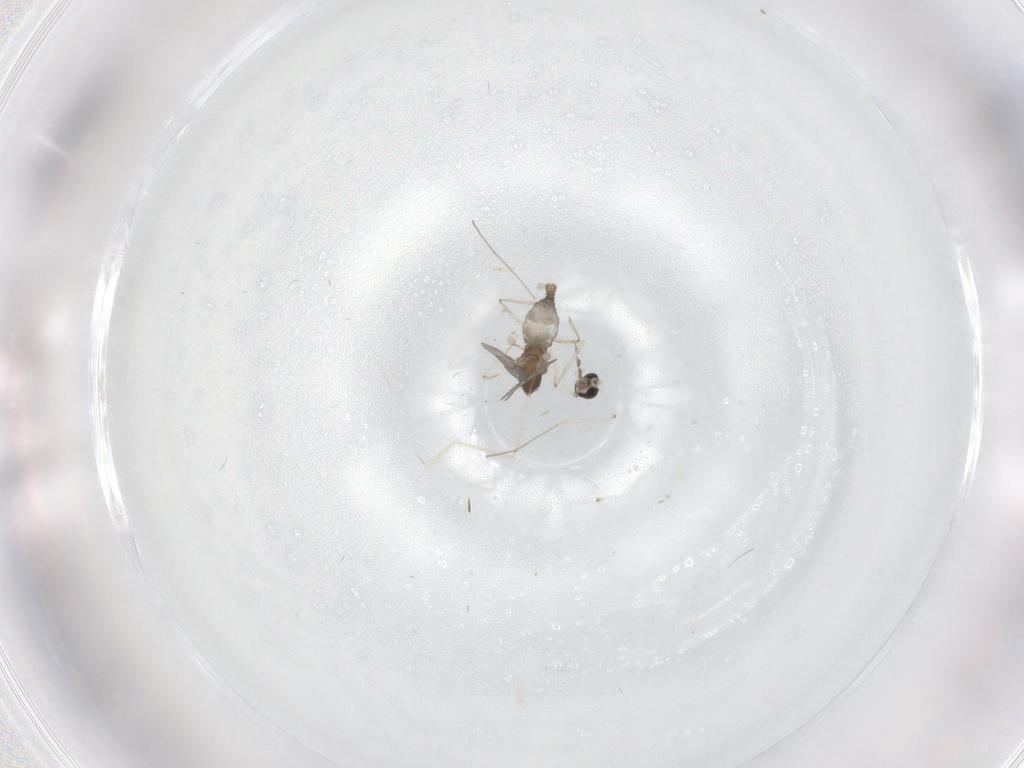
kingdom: Animalia
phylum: Arthropoda
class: Insecta
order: Diptera
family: Cecidomyiidae
